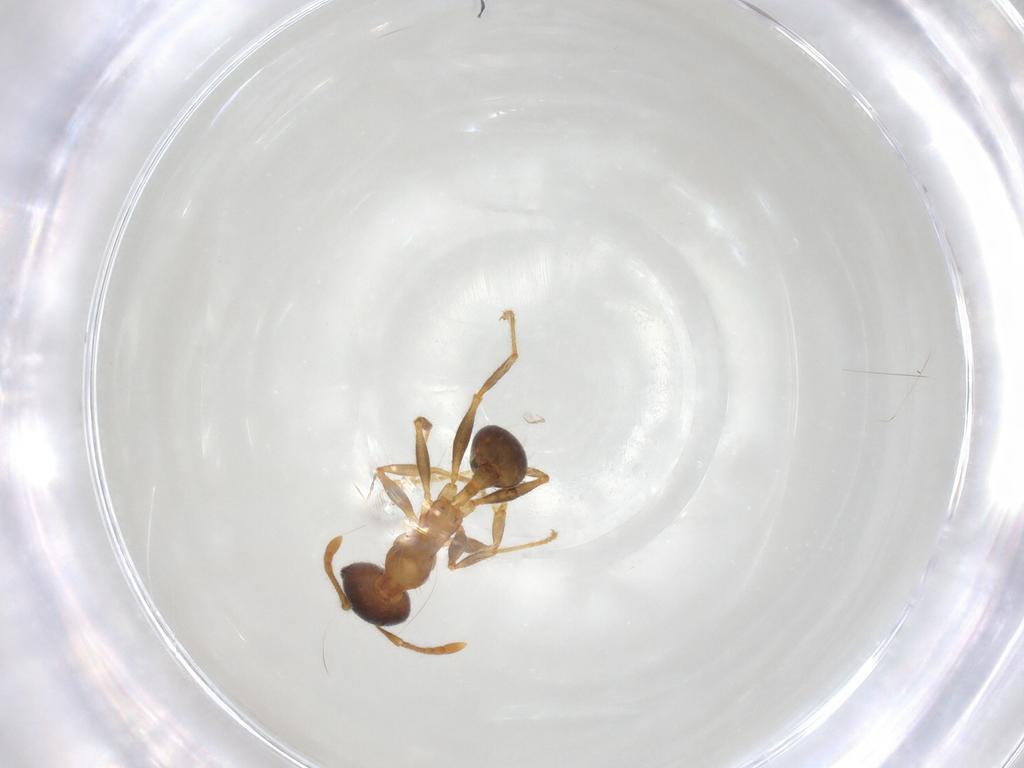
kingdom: Animalia
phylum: Arthropoda
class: Insecta
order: Hymenoptera
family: Formicidae
